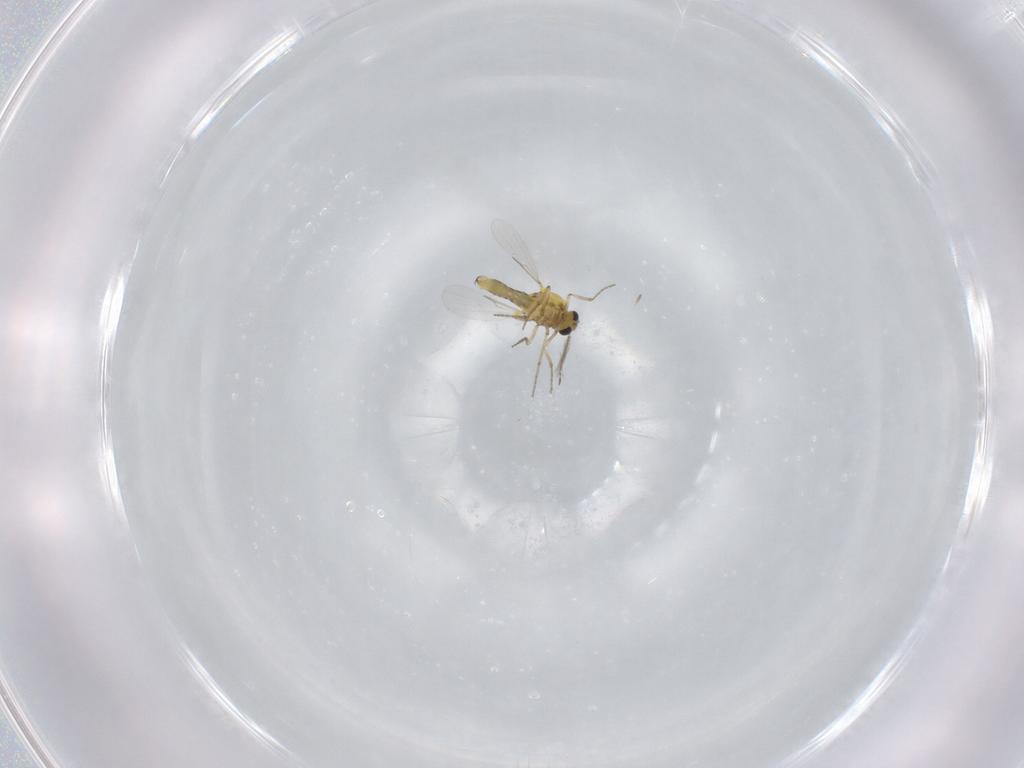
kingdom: Animalia
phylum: Arthropoda
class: Insecta
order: Diptera
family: Ceratopogonidae
